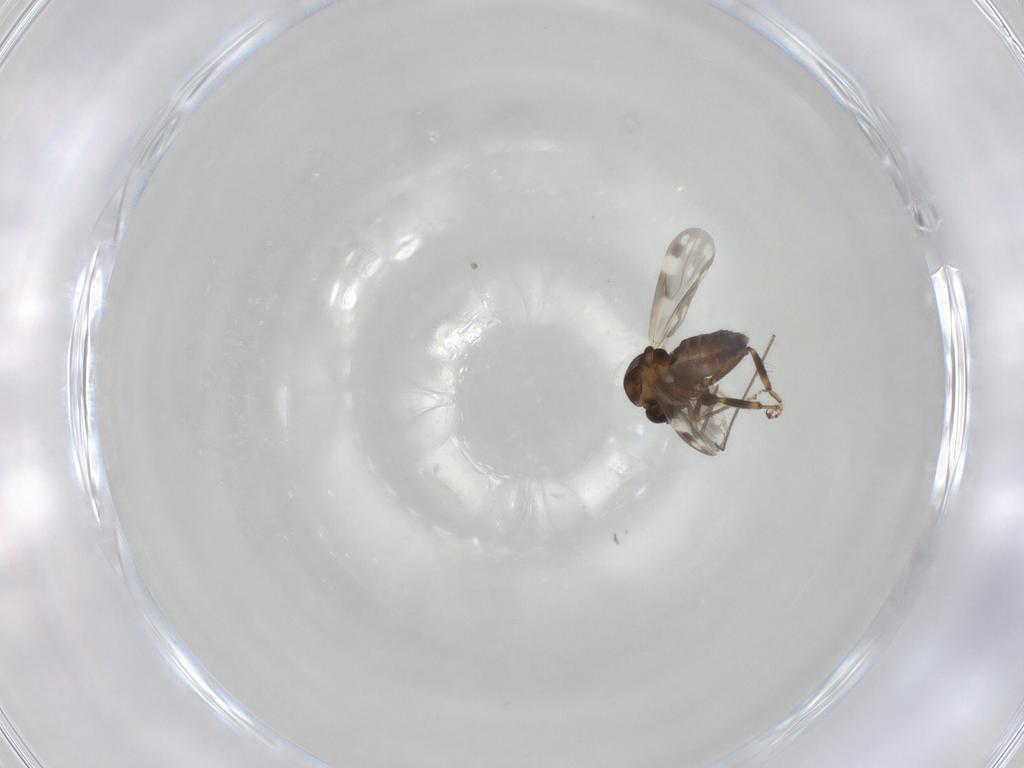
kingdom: Animalia
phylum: Arthropoda
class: Insecta
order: Diptera
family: Ceratopogonidae
